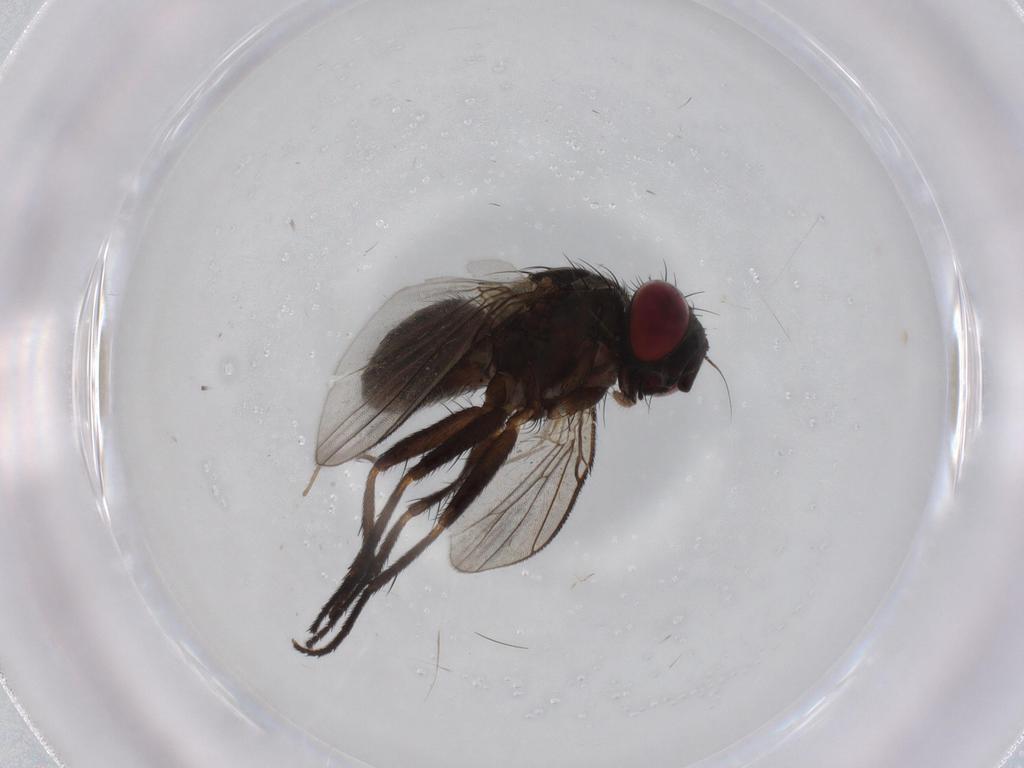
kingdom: Animalia
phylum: Arthropoda
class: Insecta
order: Diptera
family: Muscidae
